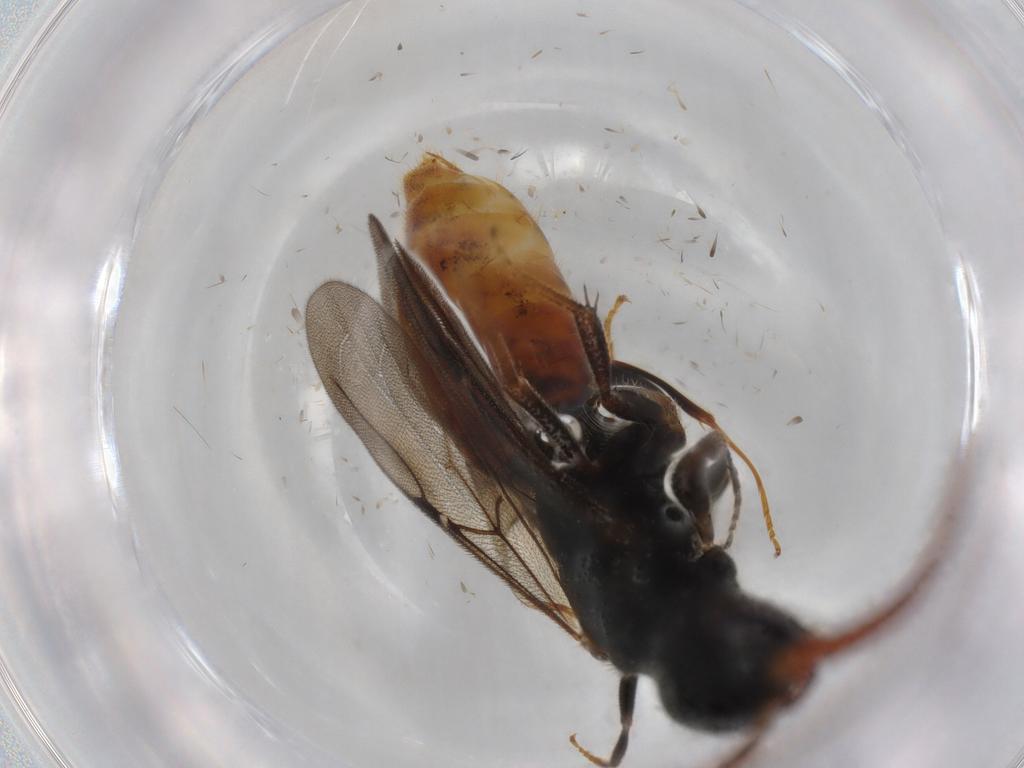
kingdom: Animalia
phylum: Arthropoda
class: Insecta
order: Hymenoptera
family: Bethylidae
